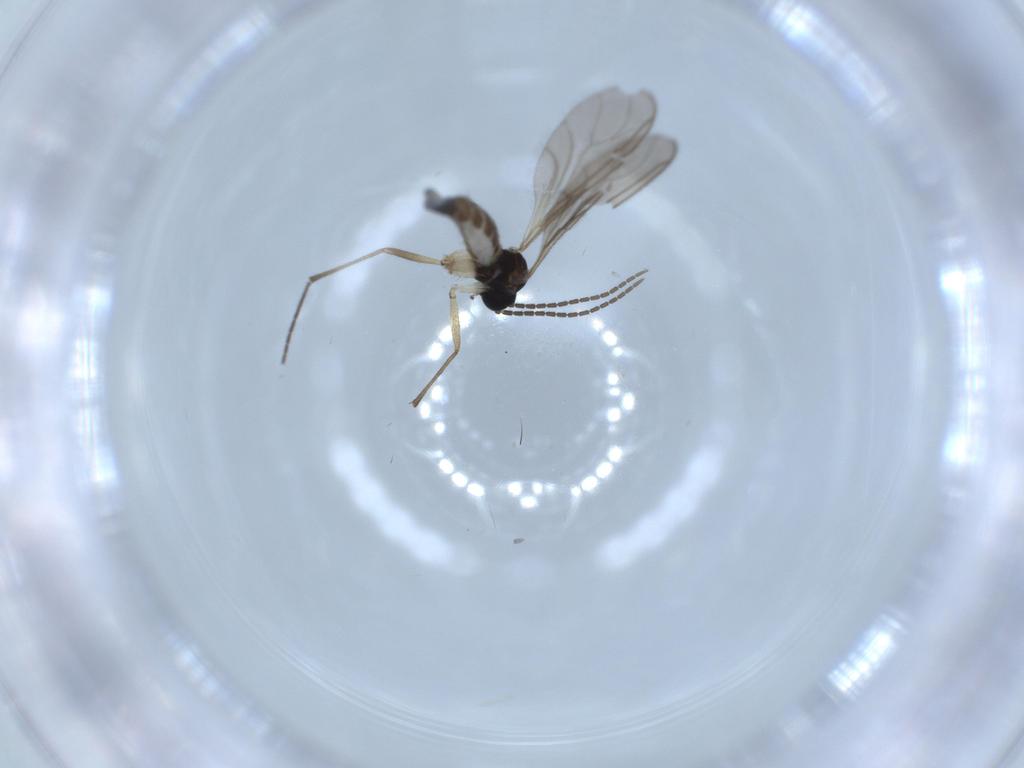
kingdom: Animalia
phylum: Arthropoda
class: Insecta
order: Diptera
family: Sciaridae
